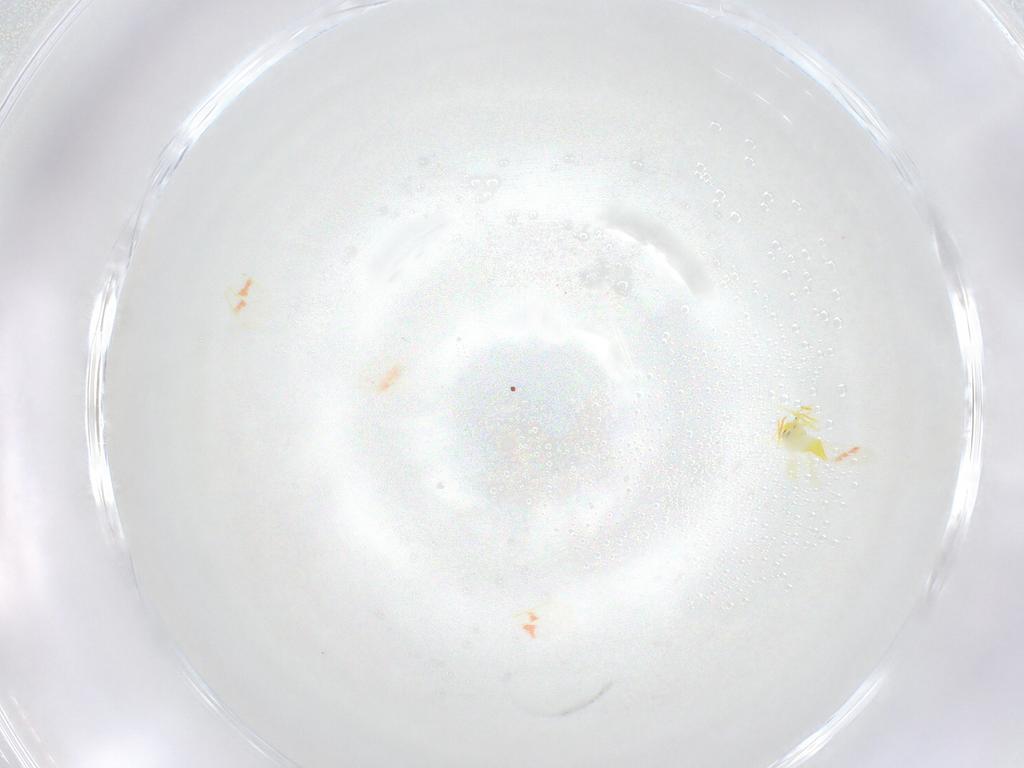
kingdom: Animalia
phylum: Arthropoda
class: Insecta
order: Hemiptera
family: Aleyrodidae
